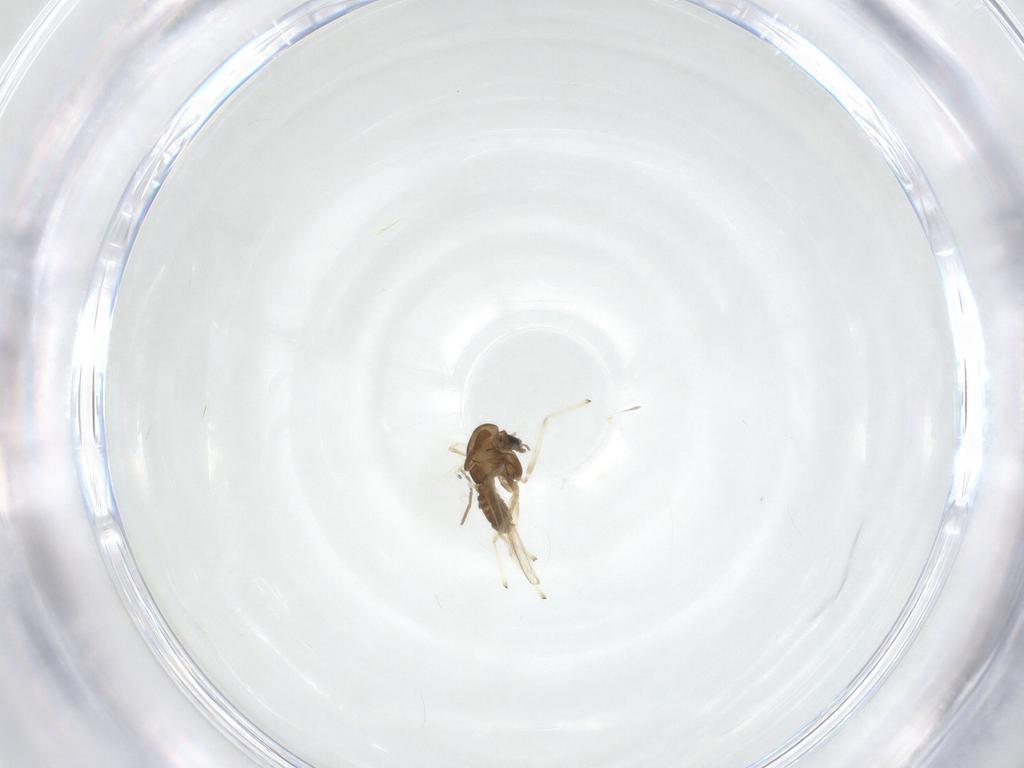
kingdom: Animalia
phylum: Arthropoda
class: Insecta
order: Diptera
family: Chironomidae
